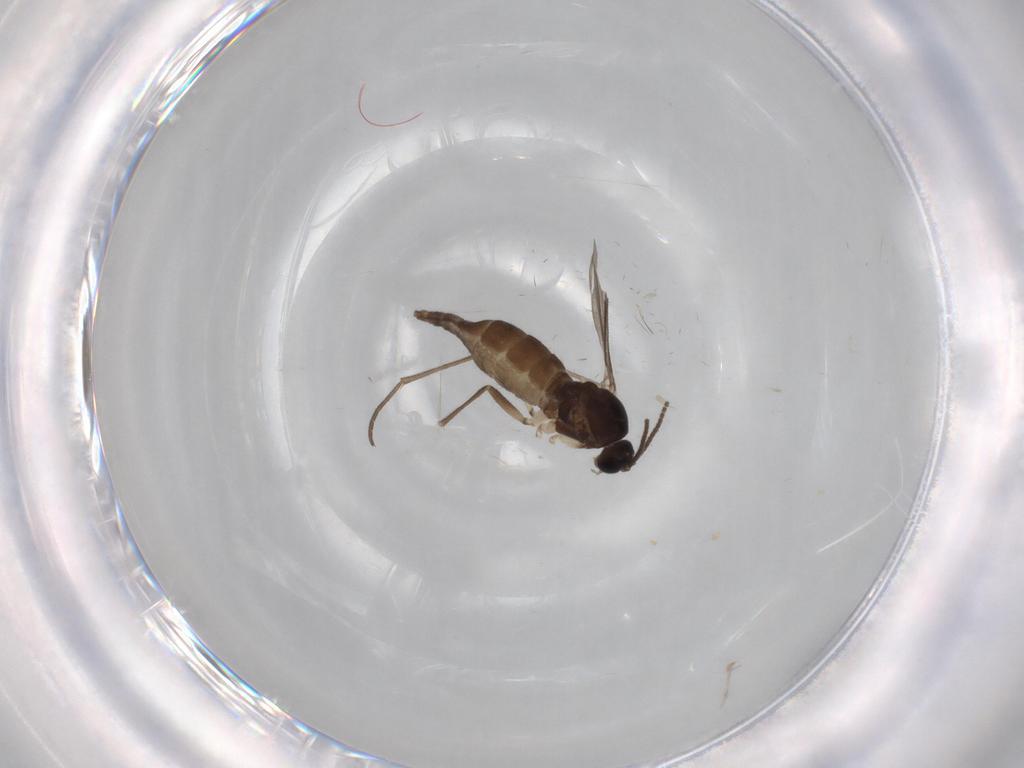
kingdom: Animalia
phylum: Arthropoda
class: Insecta
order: Diptera
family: Sciaridae
